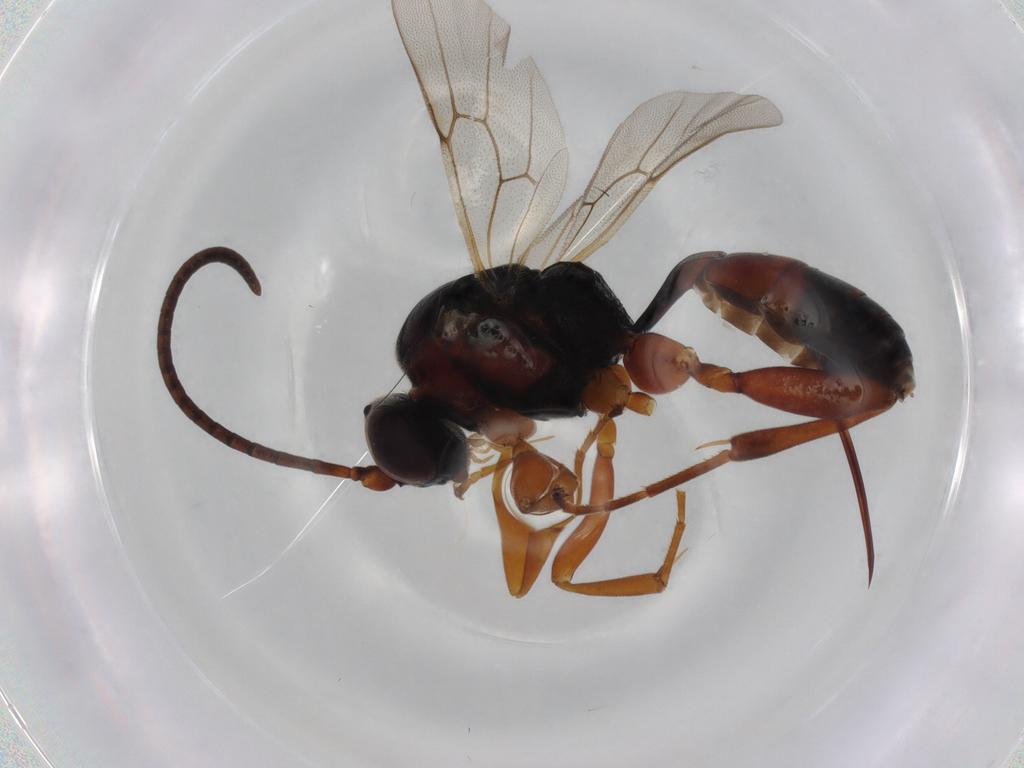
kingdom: Animalia
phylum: Arthropoda
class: Insecta
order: Hymenoptera
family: Ichneumonidae
